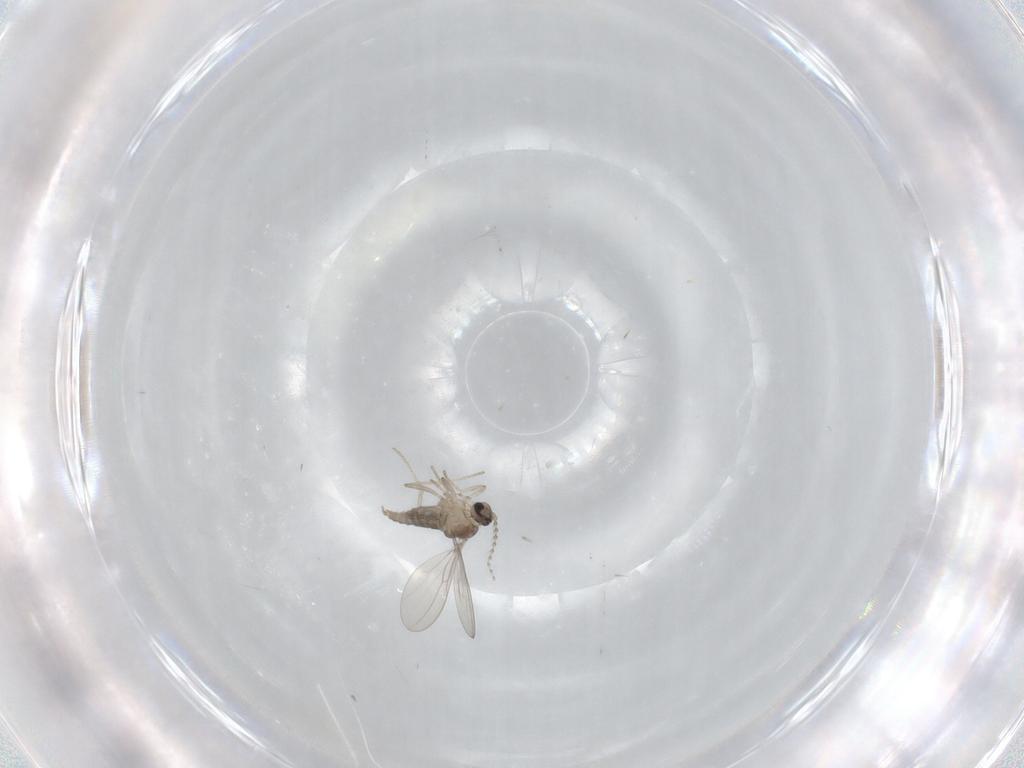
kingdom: Animalia
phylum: Arthropoda
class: Insecta
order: Diptera
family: Cecidomyiidae
